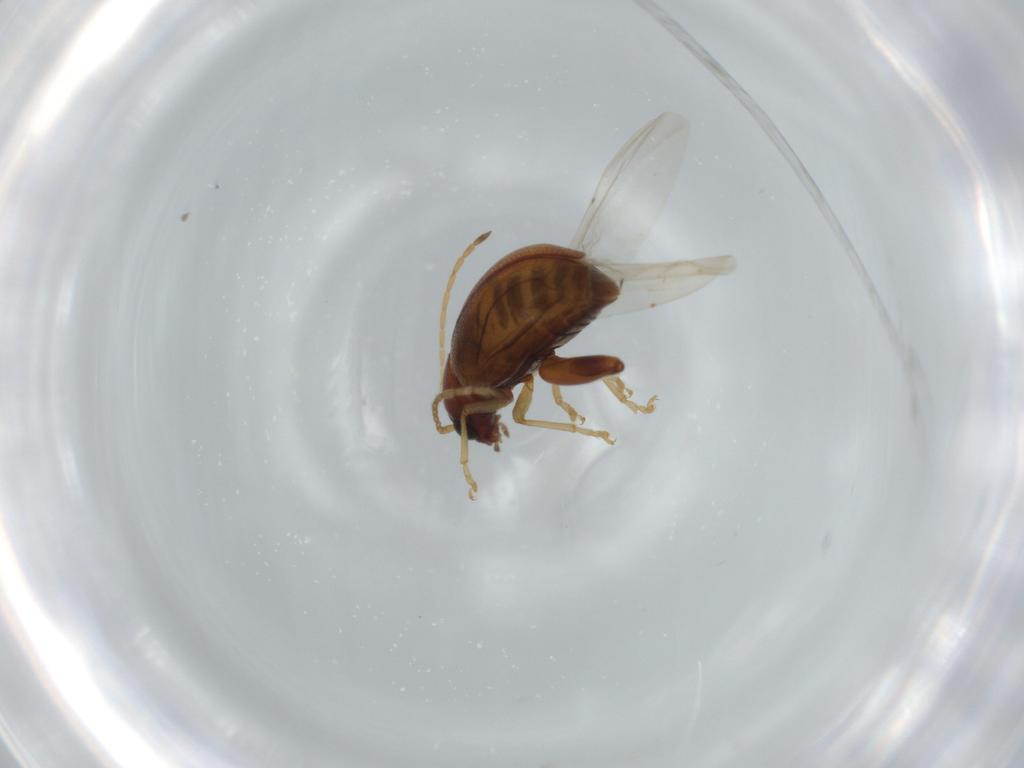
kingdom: Animalia
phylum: Arthropoda
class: Insecta
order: Coleoptera
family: Chrysomelidae
